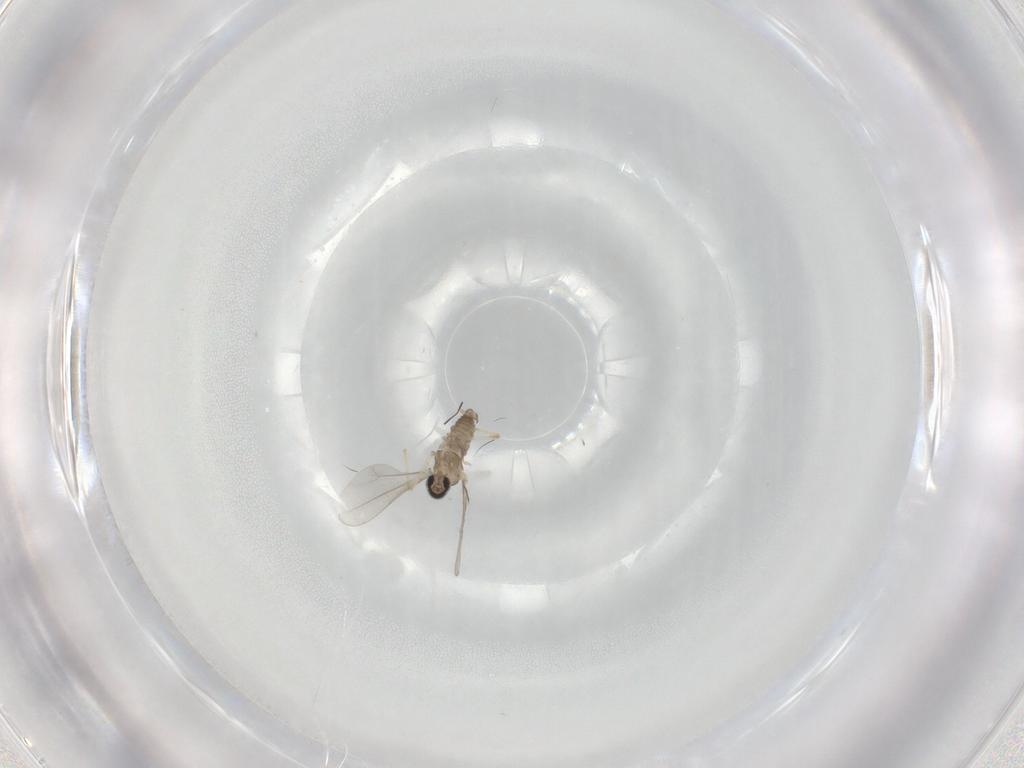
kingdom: Animalia
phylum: Arthropoda
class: Insecta
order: Diptera
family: Cecidomyiidae
